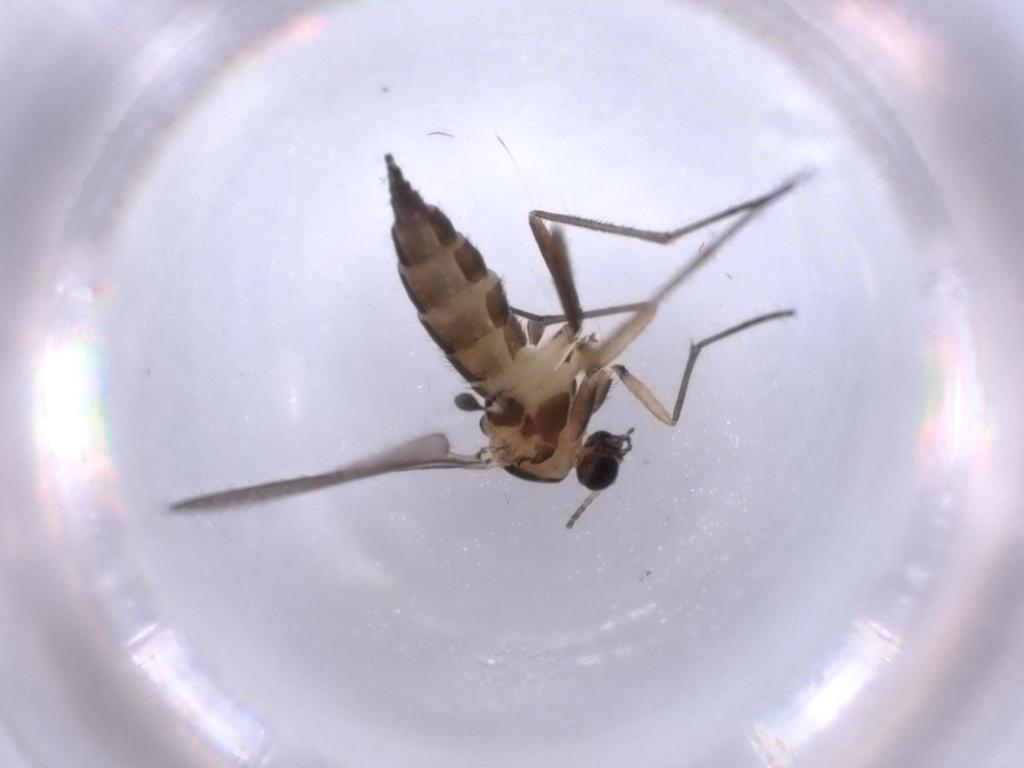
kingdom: Animalia
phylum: Arthropoda
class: Insecta
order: Diptera
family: Sciaridae
